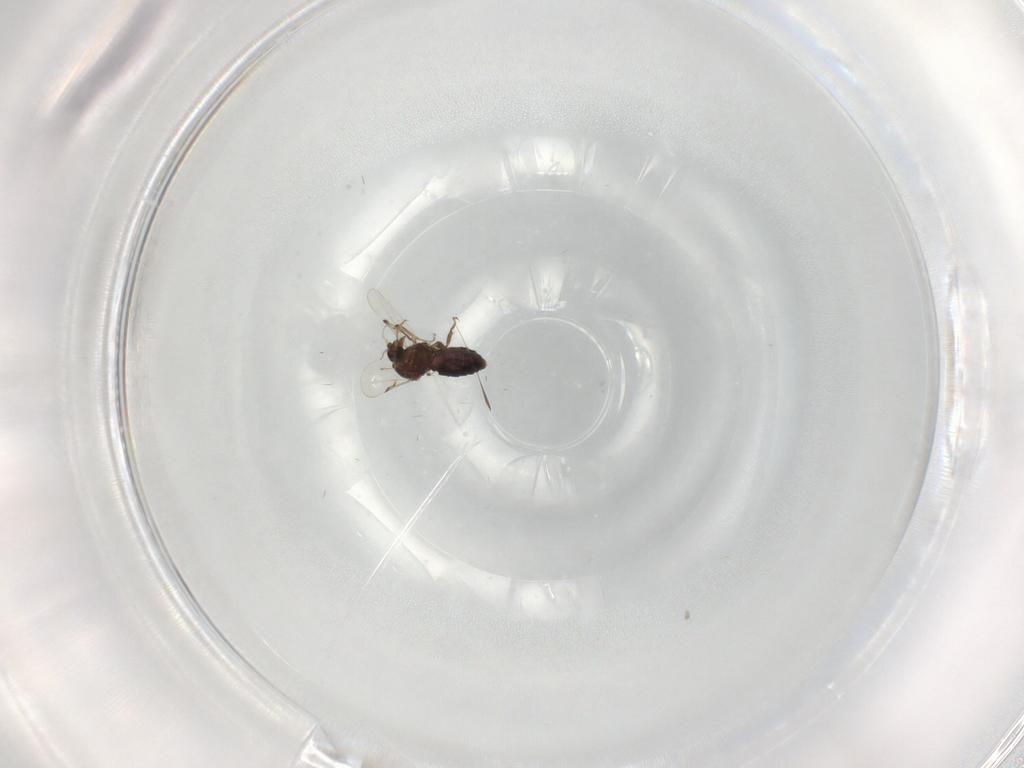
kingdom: Animalia
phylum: Arthropoda
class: Insecta
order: Diptera
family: Ceratopogonidae
